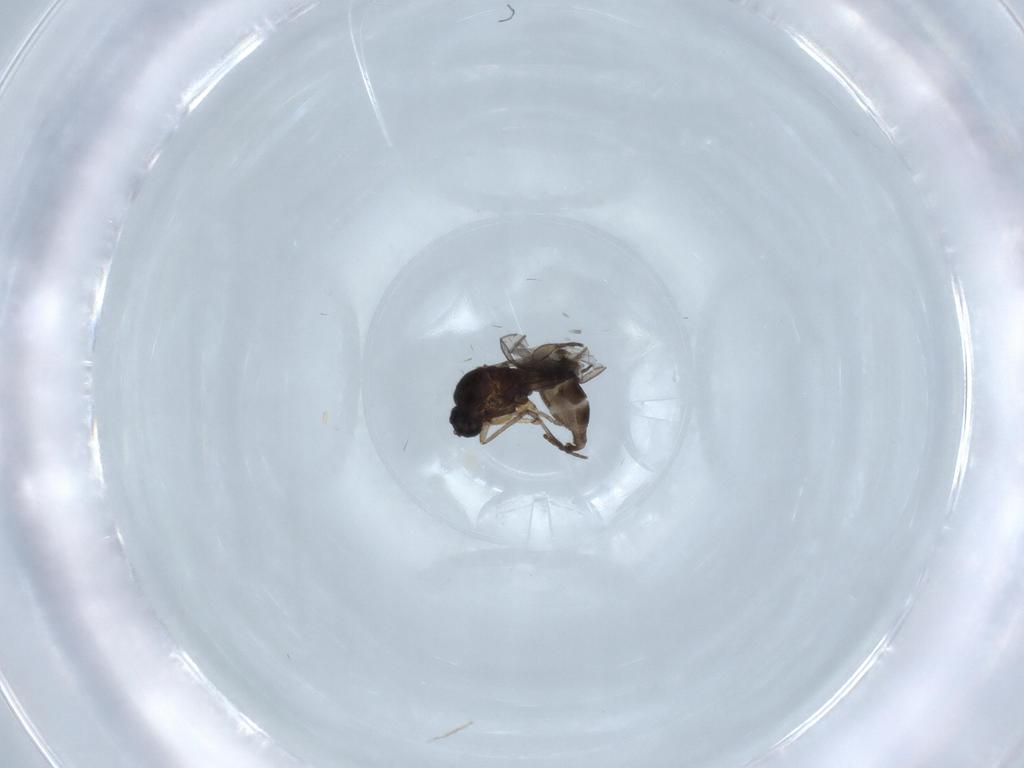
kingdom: Animalia
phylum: Arthropoda
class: Insecta
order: Diptera
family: Sciaridae
